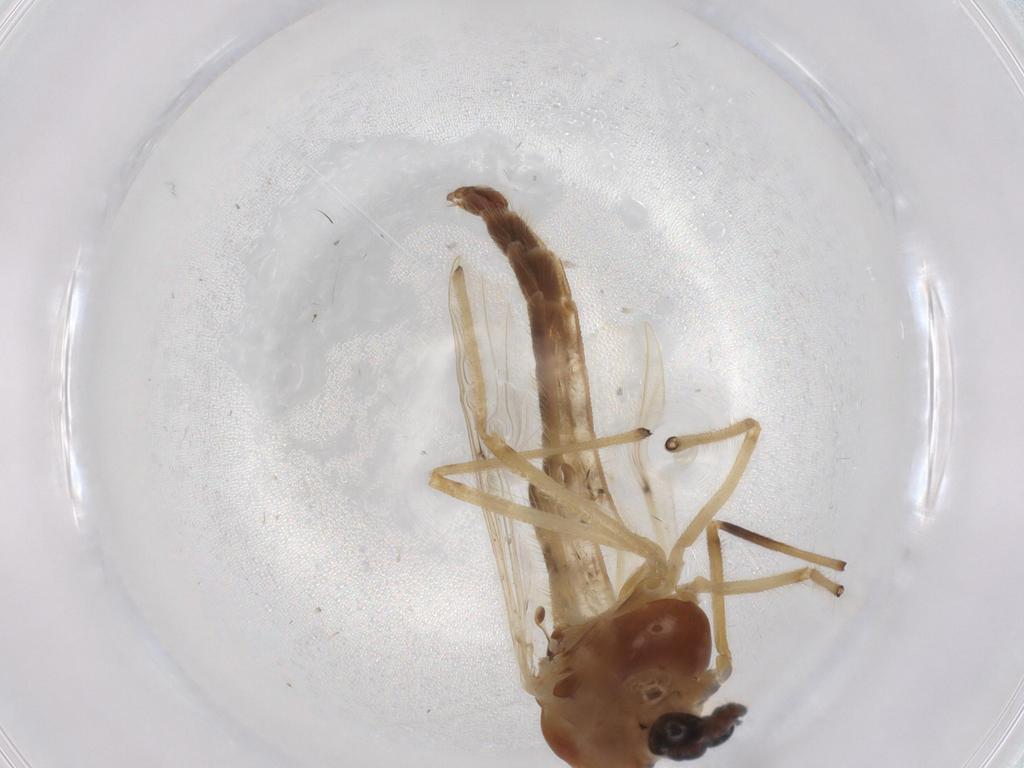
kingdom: Animalia
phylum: Arthropoda
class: Insecta
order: Diptera
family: Chironomidae
